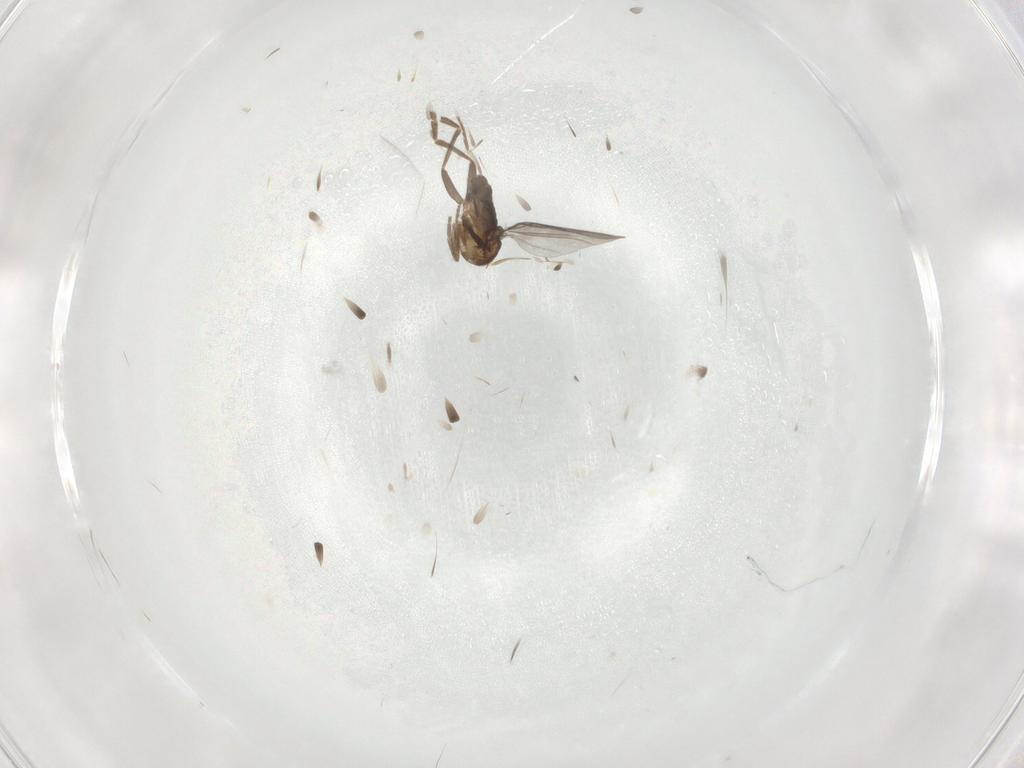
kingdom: Animalia
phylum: Arthropoda
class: Insecta
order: Diptera
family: Phoridae
